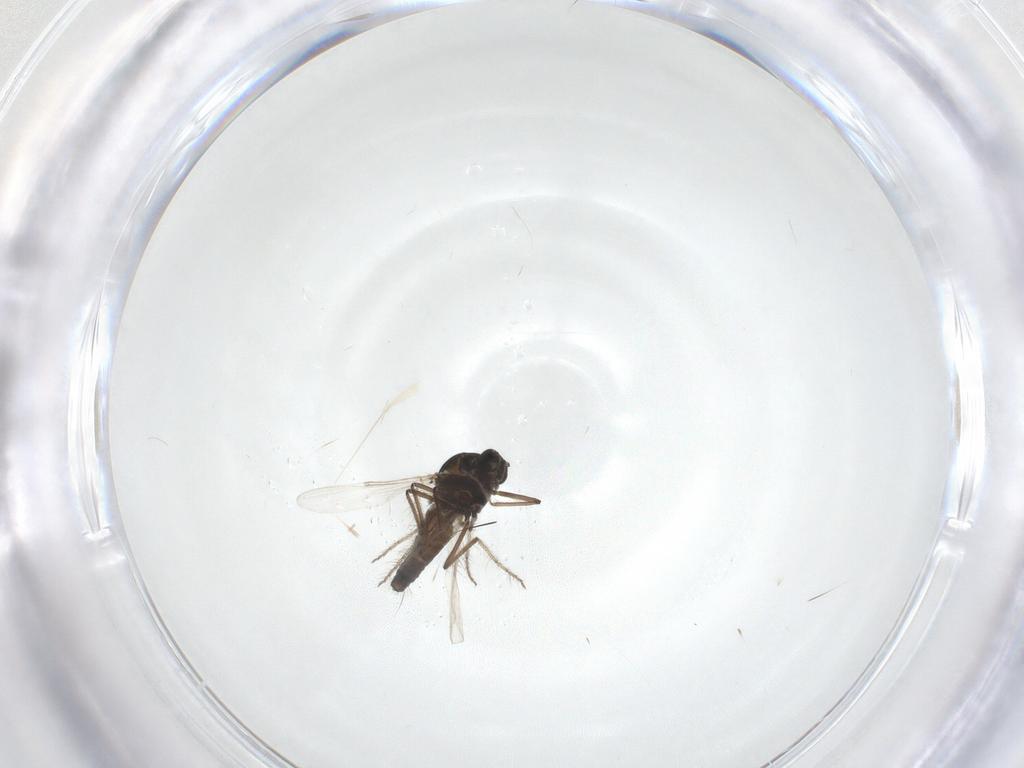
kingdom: Animalia
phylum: Arthropoda
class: Insecta
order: Diptera
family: Ceratopogonidae
